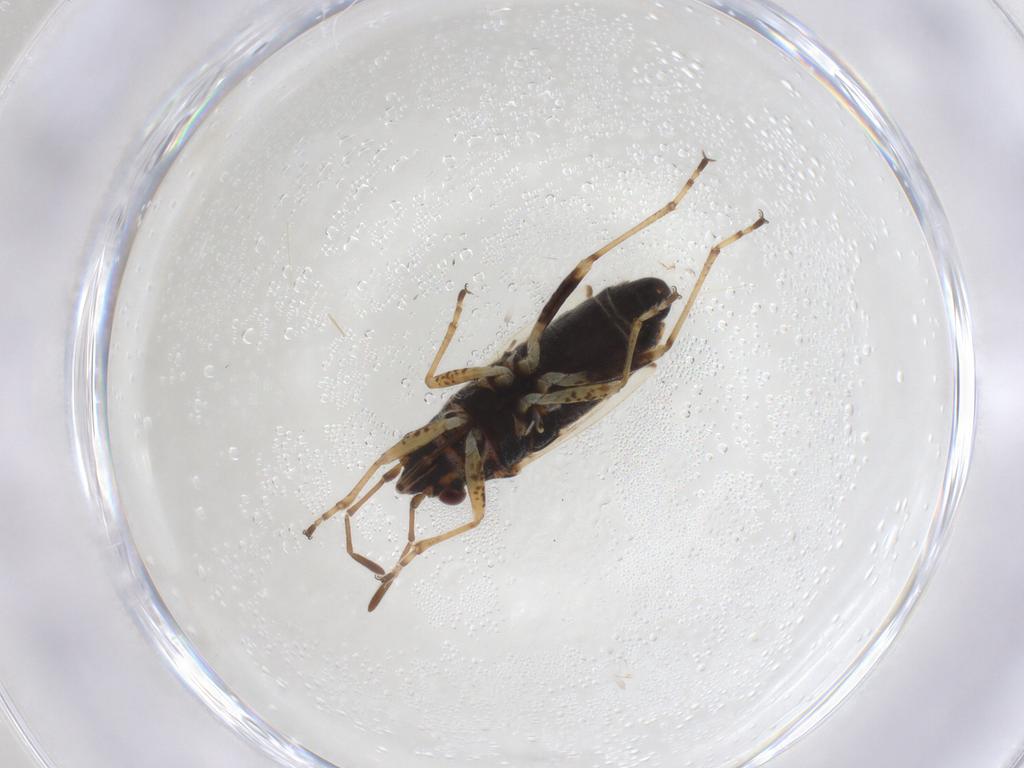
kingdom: Animalia
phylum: Arthropoda
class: Insecta
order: Hemiptera
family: Lygaeidae
